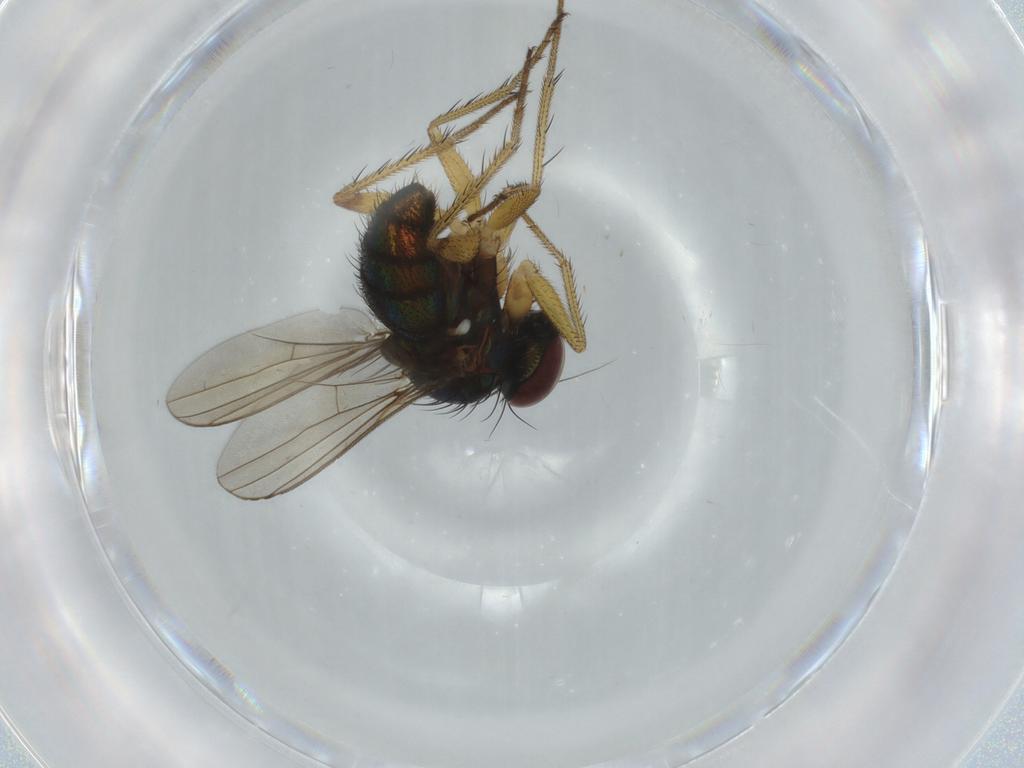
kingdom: Animalia
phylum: Arthropoda
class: Insecta
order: Diptera
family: Dolichopodidae
